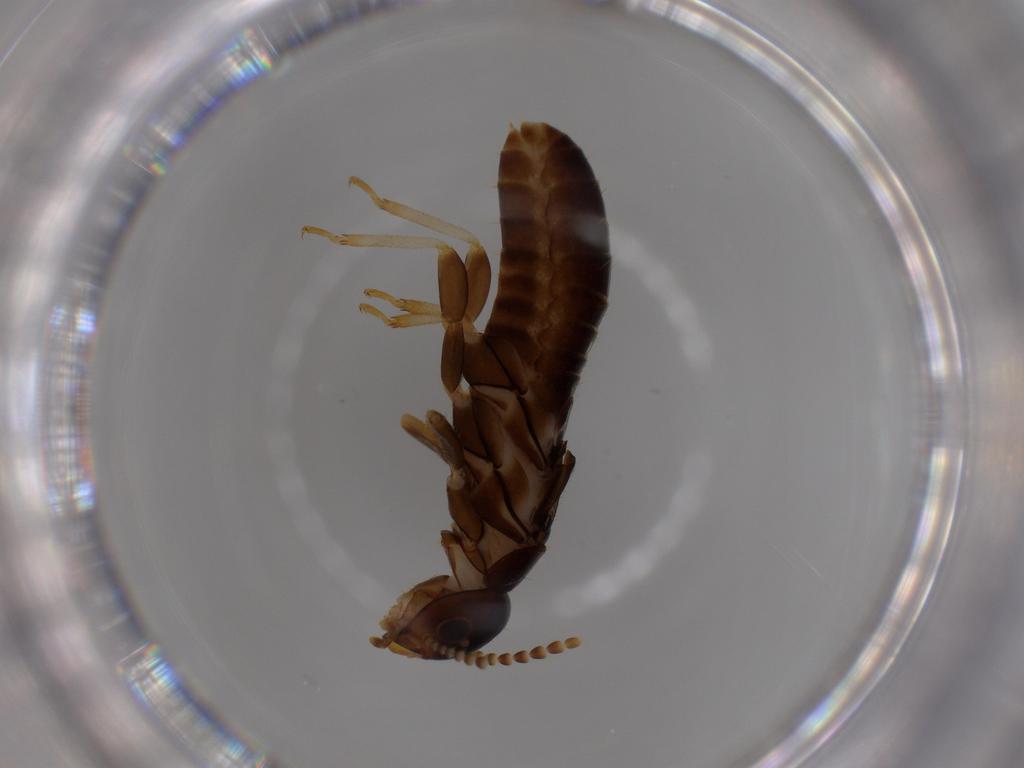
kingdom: Animalia
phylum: Arthropoda
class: Insecta
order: Blattodea
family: Kalotermitidae
